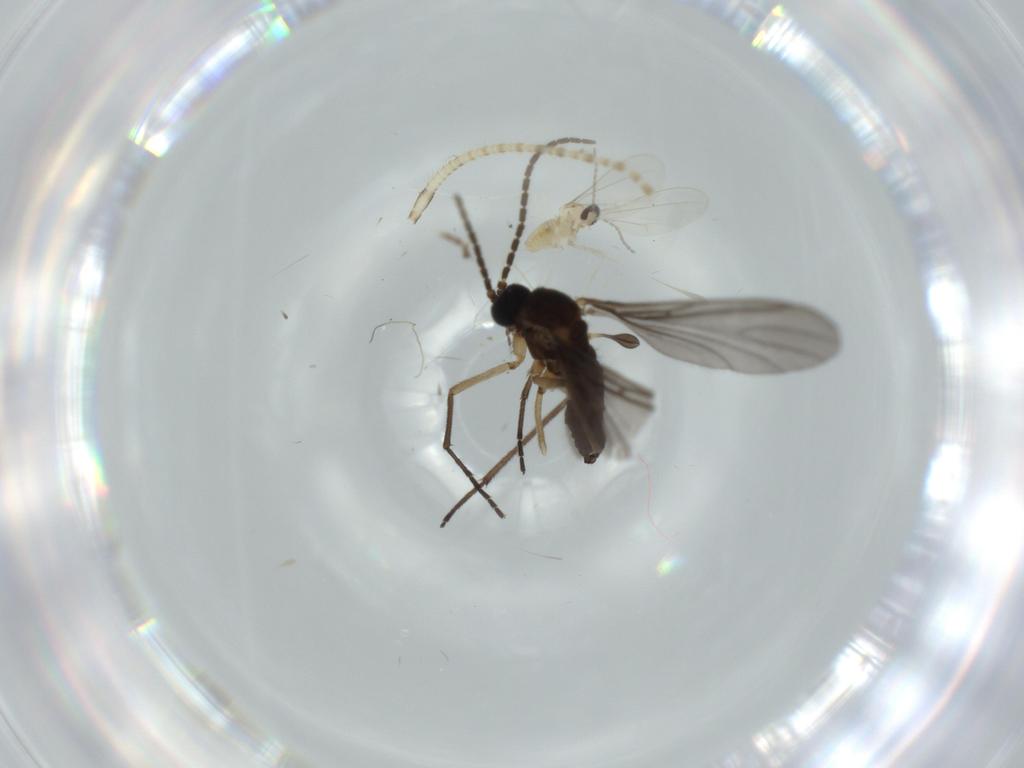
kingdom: Animalia
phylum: Arthropoda
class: Insecta
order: Diptera
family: Cecidomyiidae
